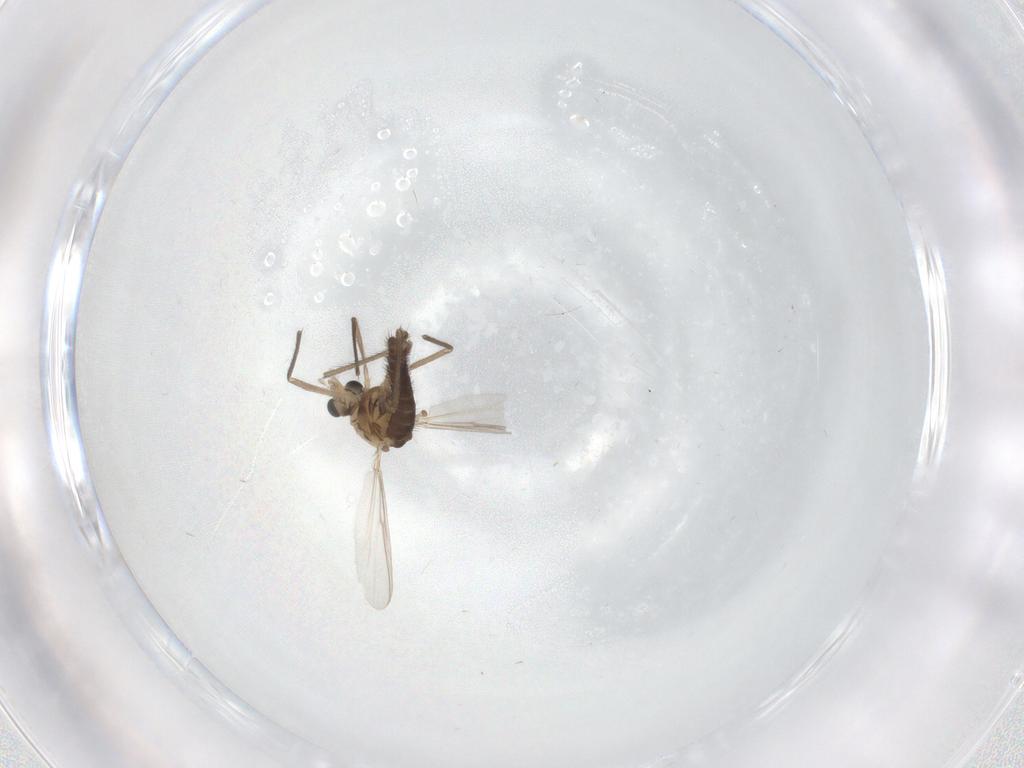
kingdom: Animalia
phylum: Arthropoda
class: Insecta
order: Diptera
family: Chironomidae
